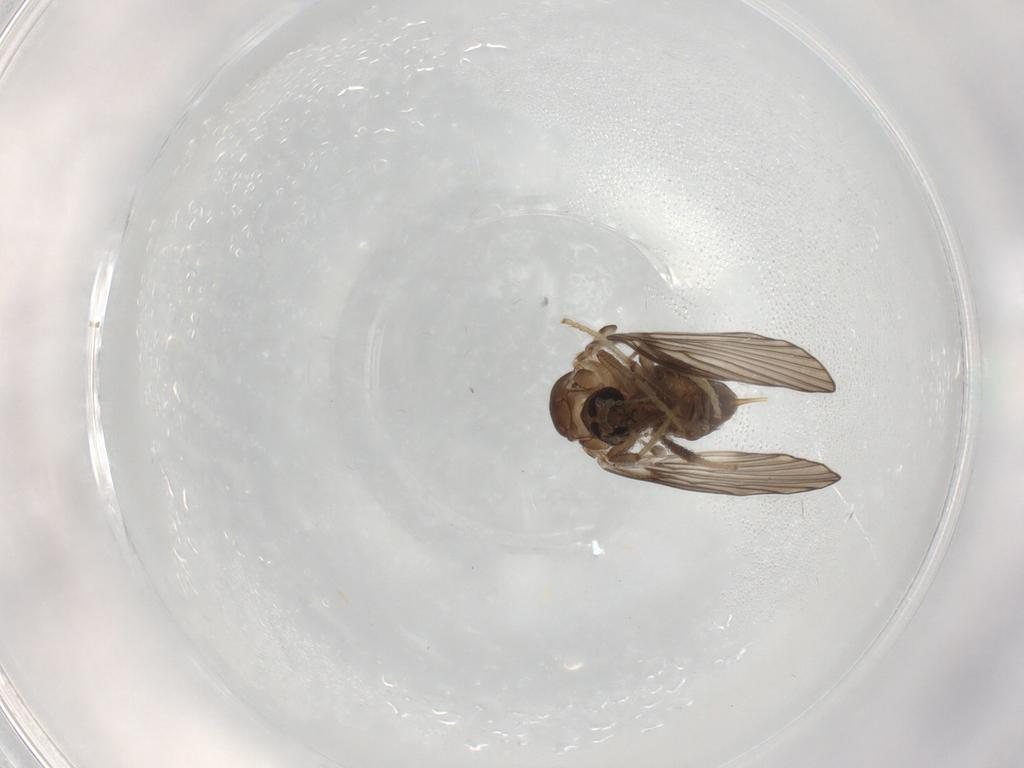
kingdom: Animalia
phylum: Arthropoda
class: Insecta
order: Diptera
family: Psychodidae
